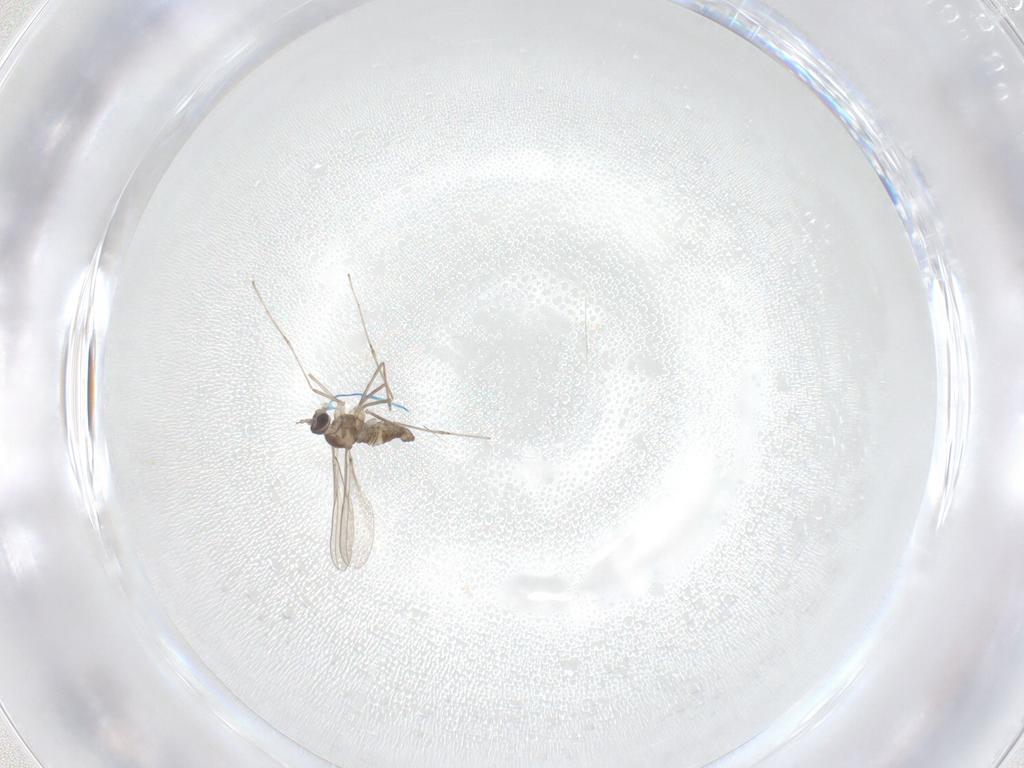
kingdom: Animalia
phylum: Arthropoda
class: Insecta
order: Diptera
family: Cecidomyiidae
